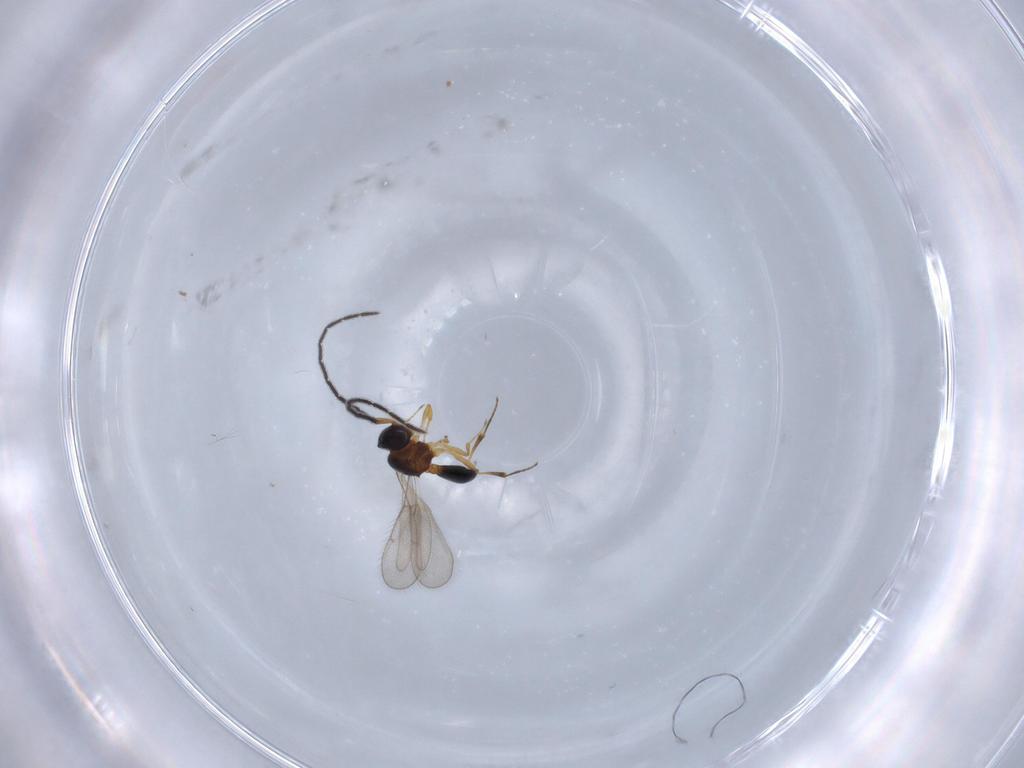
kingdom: Animalia
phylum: Arthropoda
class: Insecta
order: Hymenoptera
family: Scelionidae
